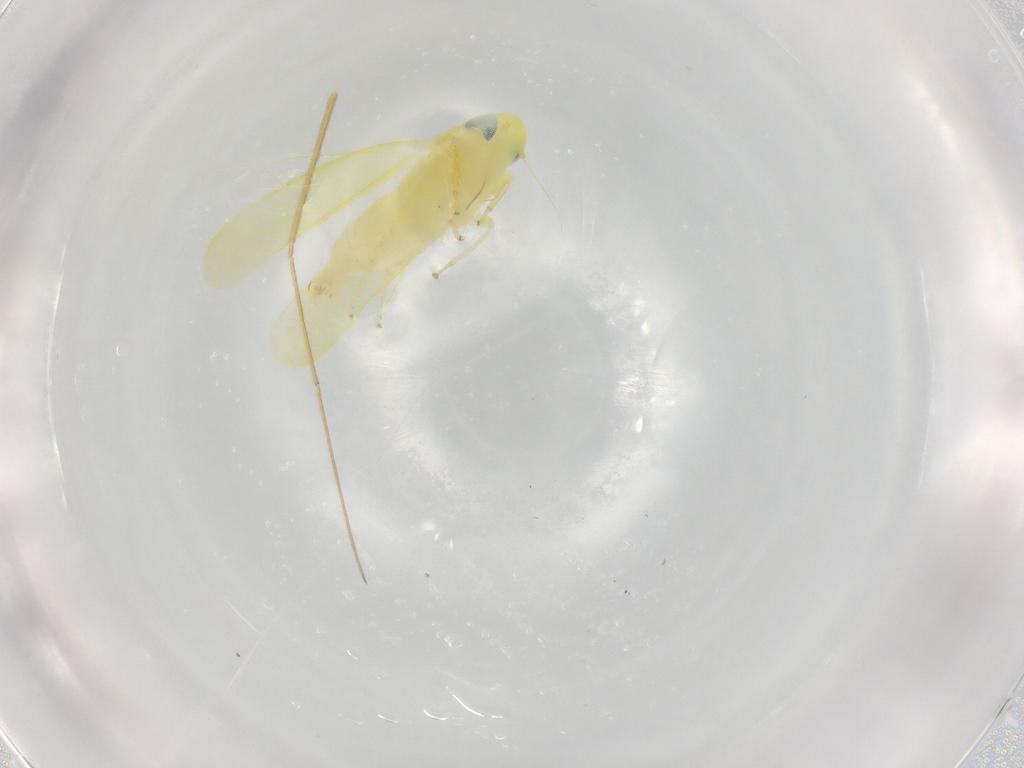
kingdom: Animalia
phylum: Arthropoda
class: Insecta
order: Hemiptera
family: Cicadellidae
